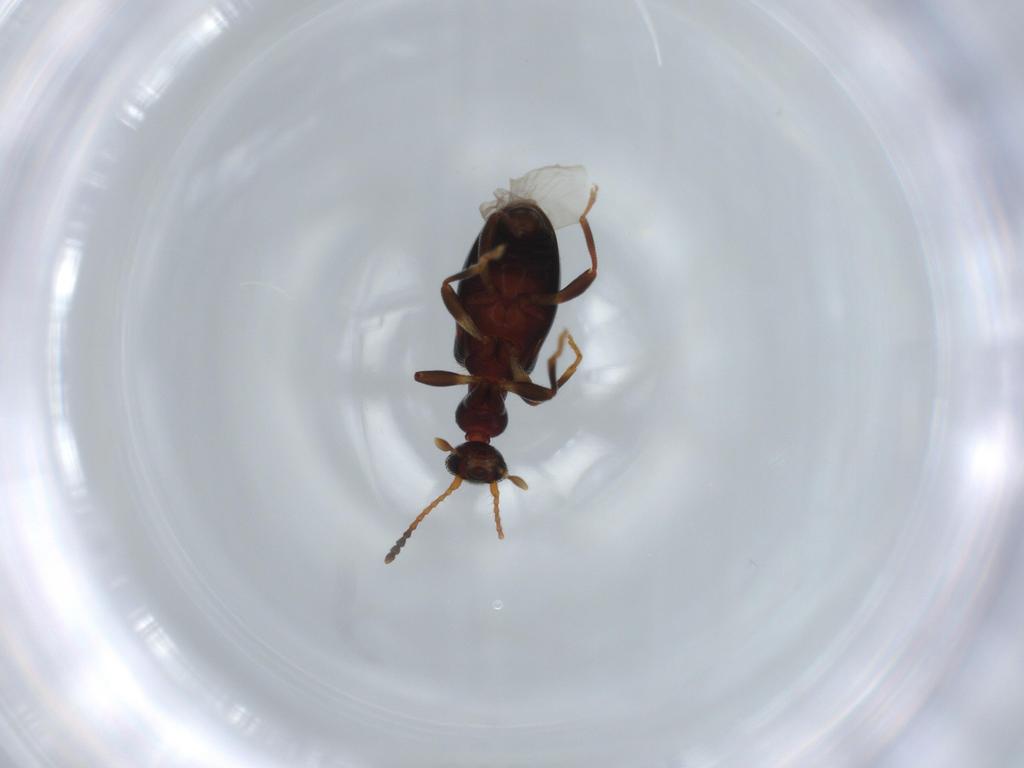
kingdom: Animalia
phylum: Arthropoda
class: Insecta
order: Coleoptera
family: Anthicidae
